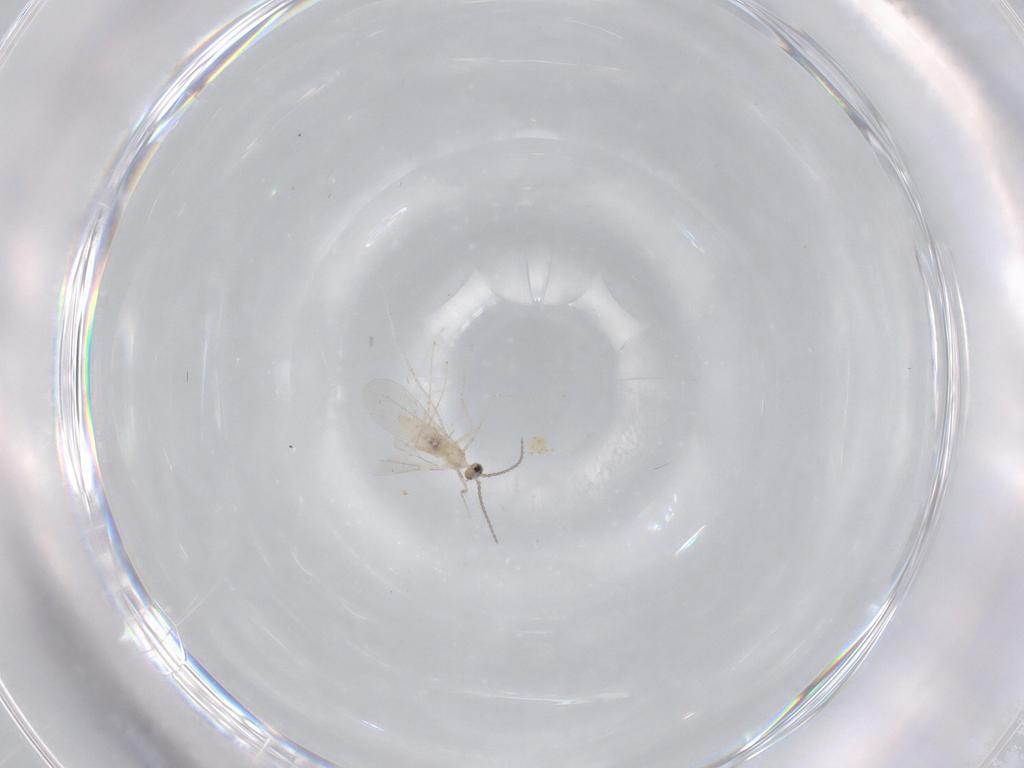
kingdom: Animalia
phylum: Arthropoda
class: Insecta
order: Diptera
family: Cecidomyiidae
